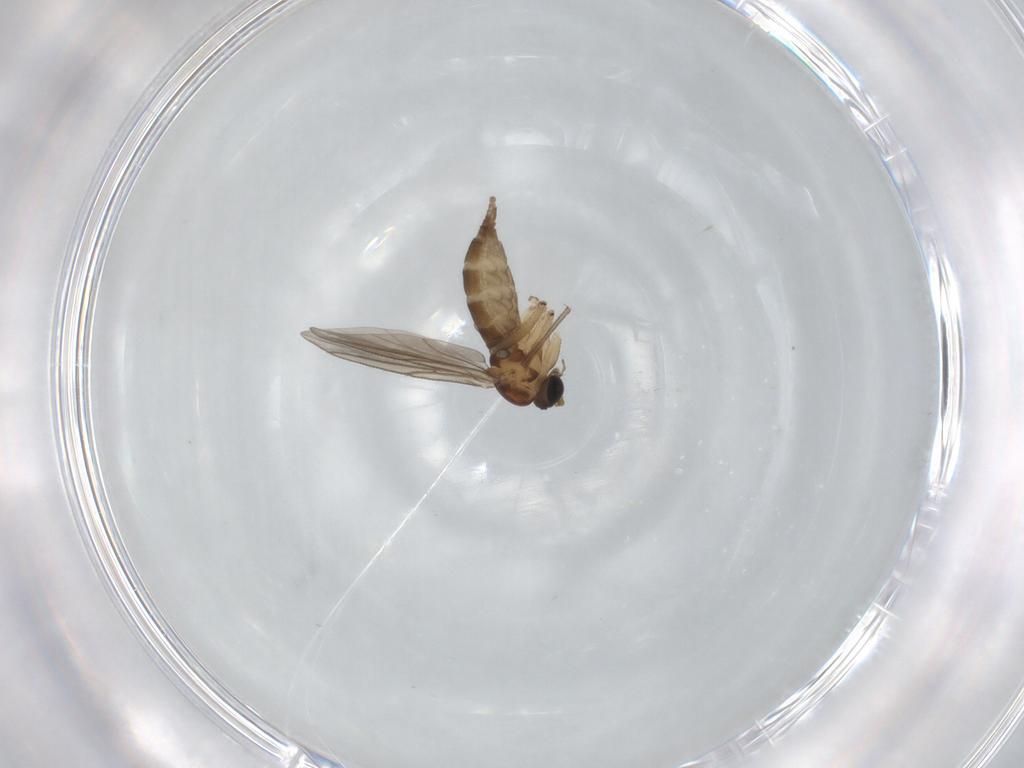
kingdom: Animalia
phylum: Arthropoda
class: Insecta
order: Diptera
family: Sciaridae
